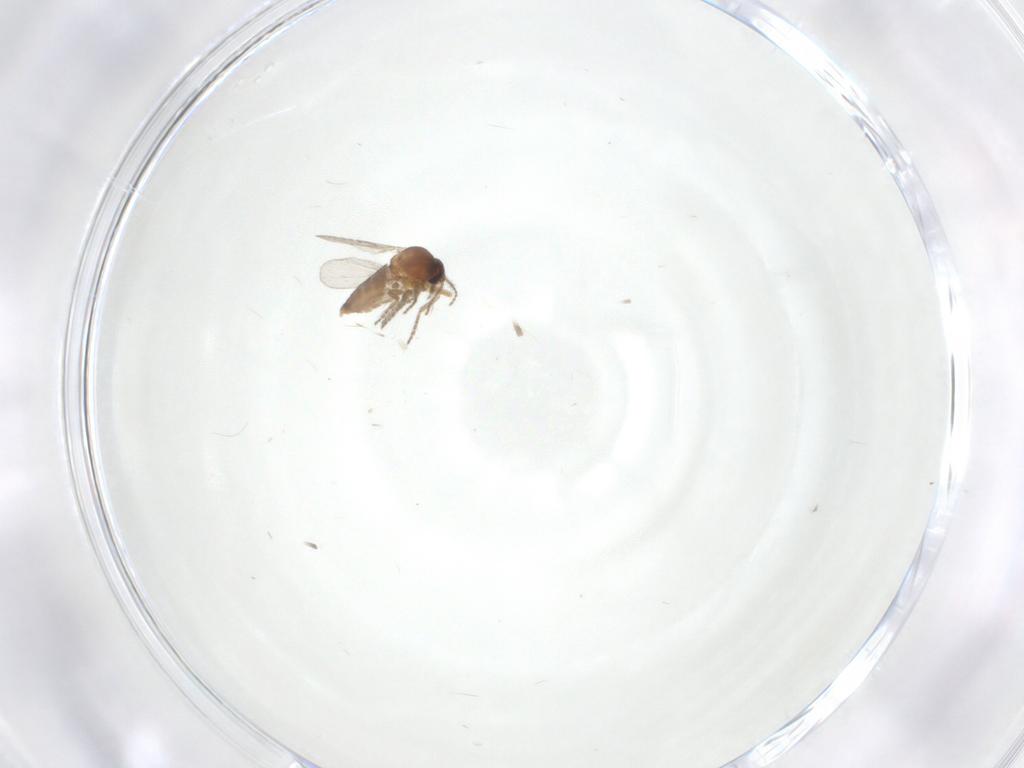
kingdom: Animalia
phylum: Arthropoda
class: Insecta
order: Diptera
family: Ceratopogonidae
